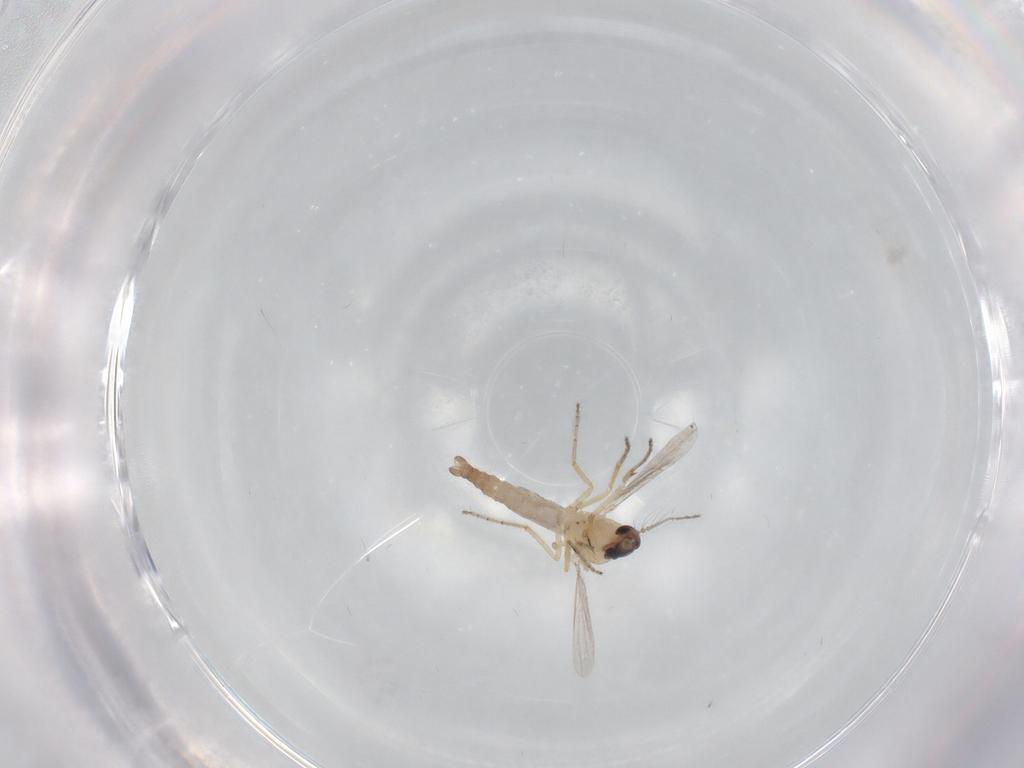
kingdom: Animalia
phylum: Arthropoda
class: Insecta
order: Diptera
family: Ceratopogonidae
